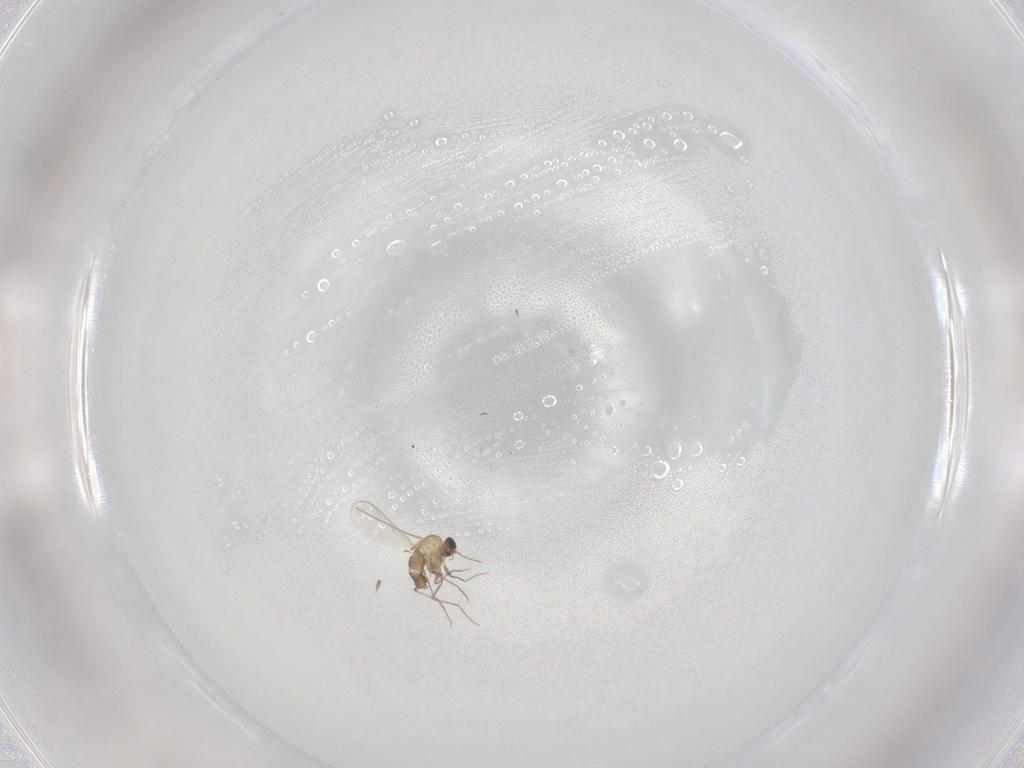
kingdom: Animalia
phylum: Arthropoda
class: Insecta
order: Diptera
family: Chironomidae
